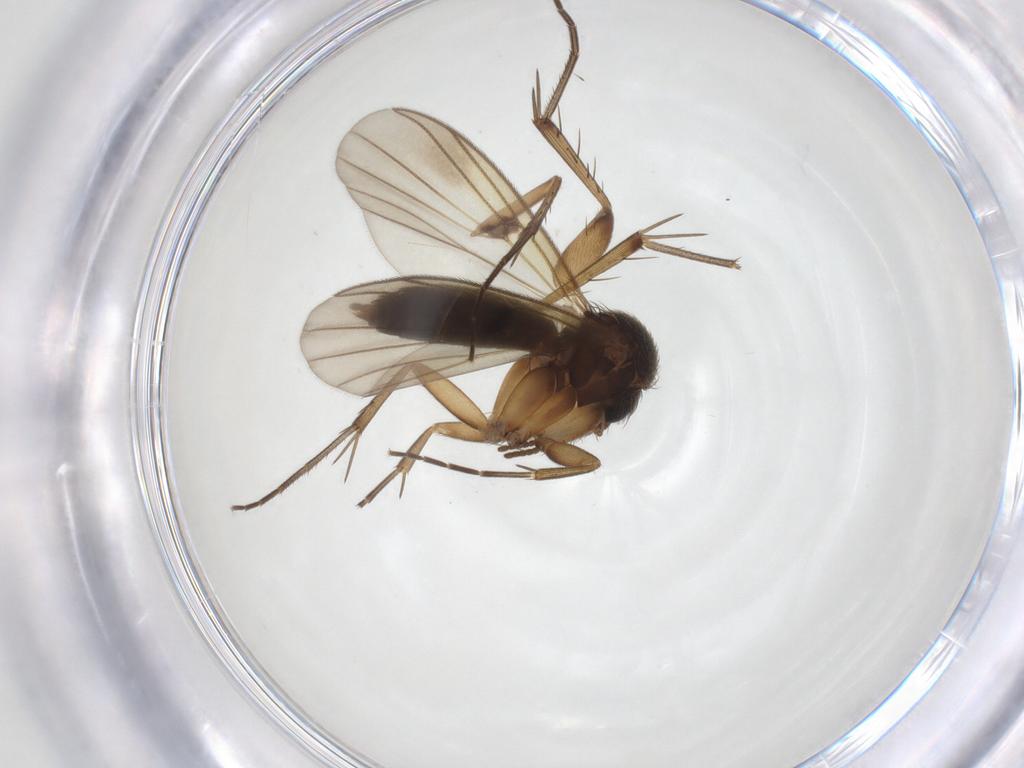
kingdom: Animalia
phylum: Arthropoda
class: Insecta
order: Diptera
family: Mycetophilidae
